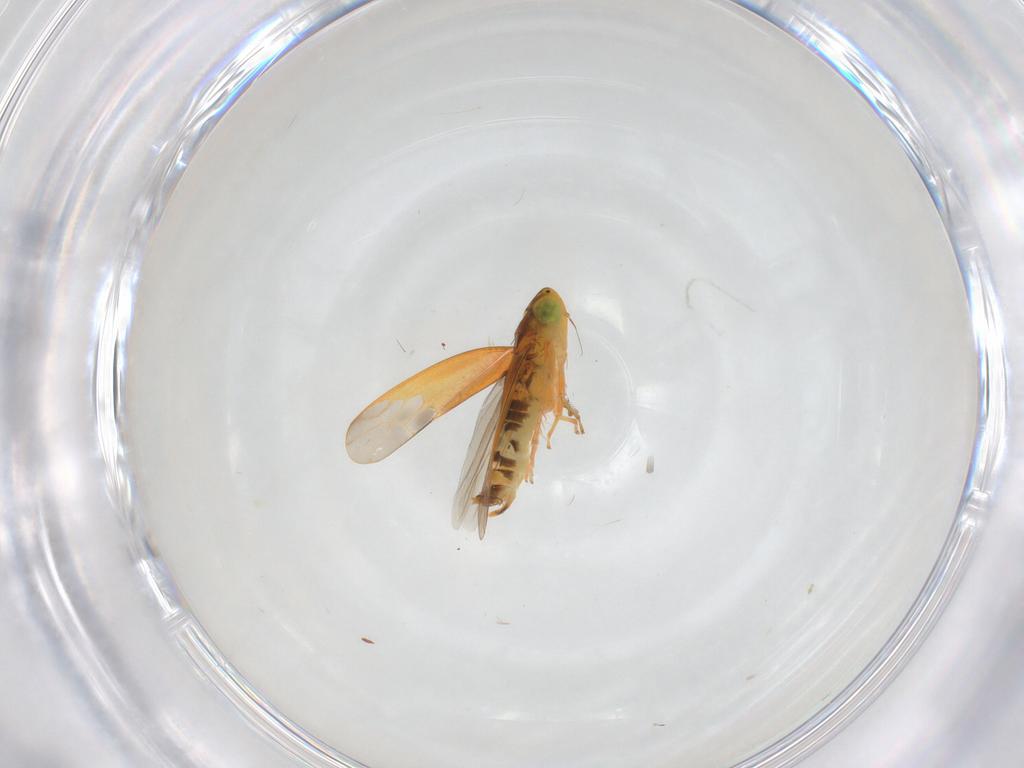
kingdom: Animalia
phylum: Arthropoda
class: Insecta
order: Hemiptera
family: Cicadellidae
